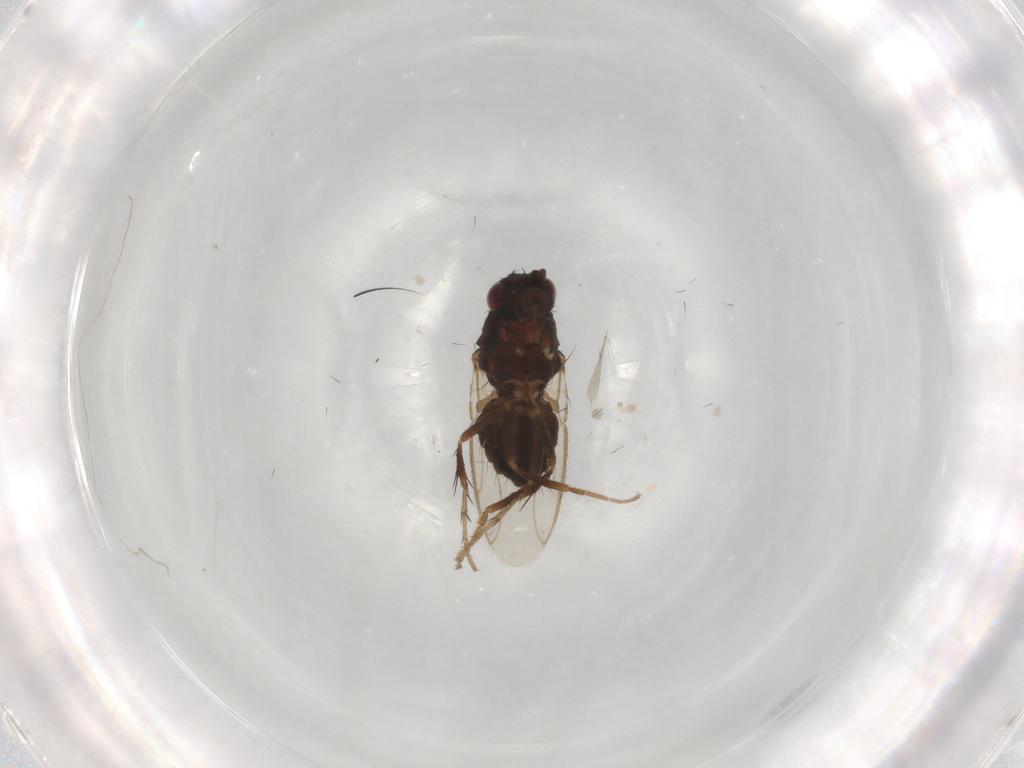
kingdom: Animalia
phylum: Arthropoda
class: Insecta
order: Diptera
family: Sphaeroceridae
